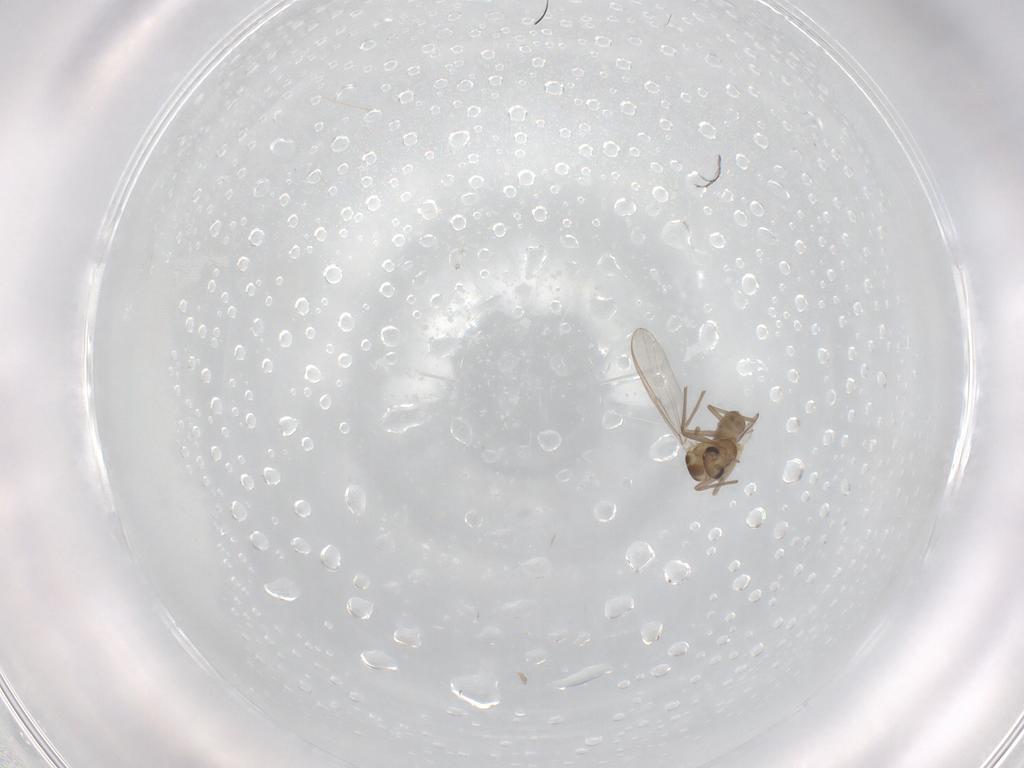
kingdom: Animalia
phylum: Arthropoda
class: Insecta
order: Diptera
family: Chironomidae
